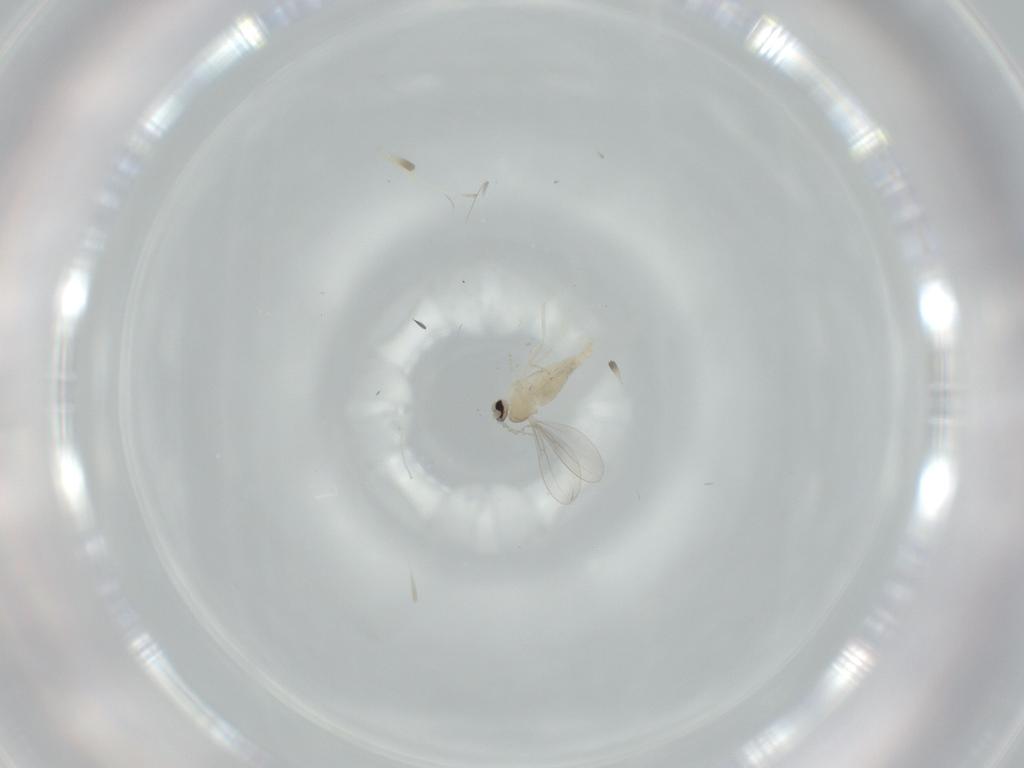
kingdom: Animalia
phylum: Arthropoda
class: Insecta
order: Diptera
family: Cecidomyiidae
